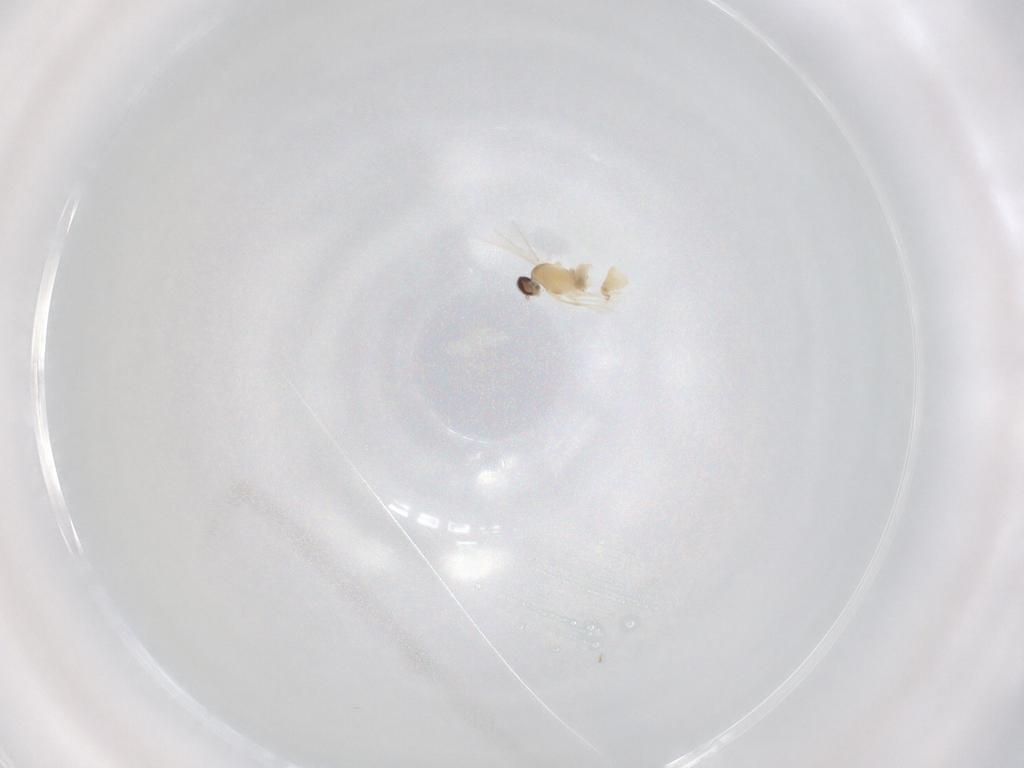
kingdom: Animalia
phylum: Arthropoda
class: Insecta
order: Diptera
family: Cecidomyiidae
